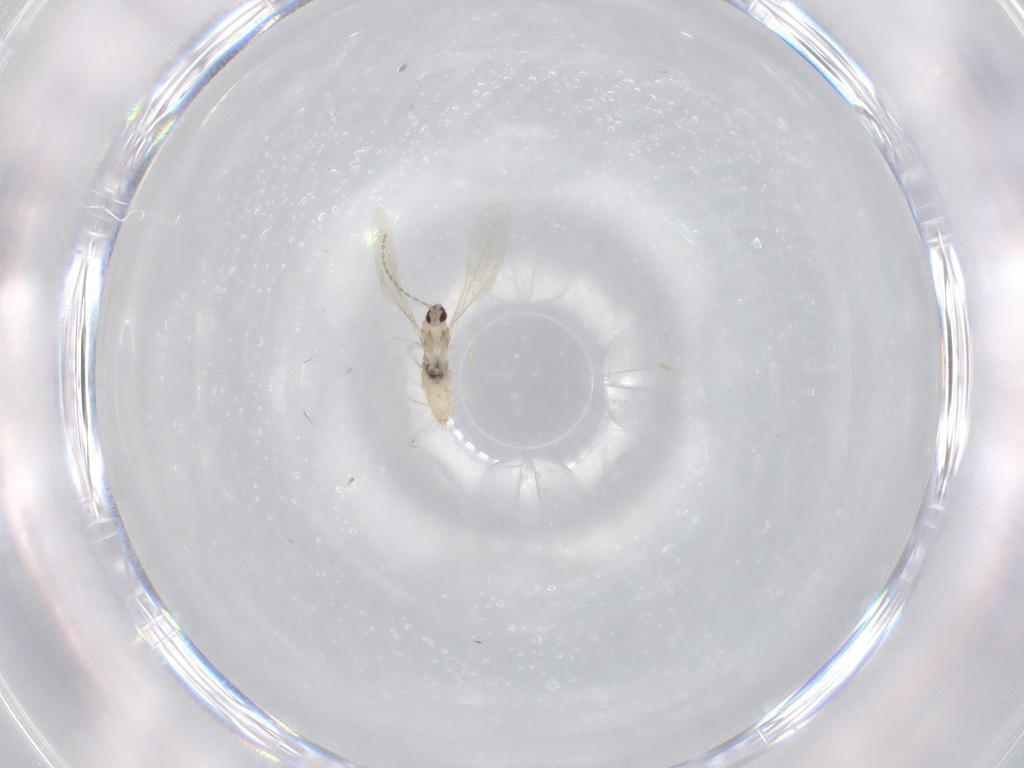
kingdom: Animalia
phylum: Arthropoda
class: Insecta
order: Diptera
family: Cecidomyiidae
